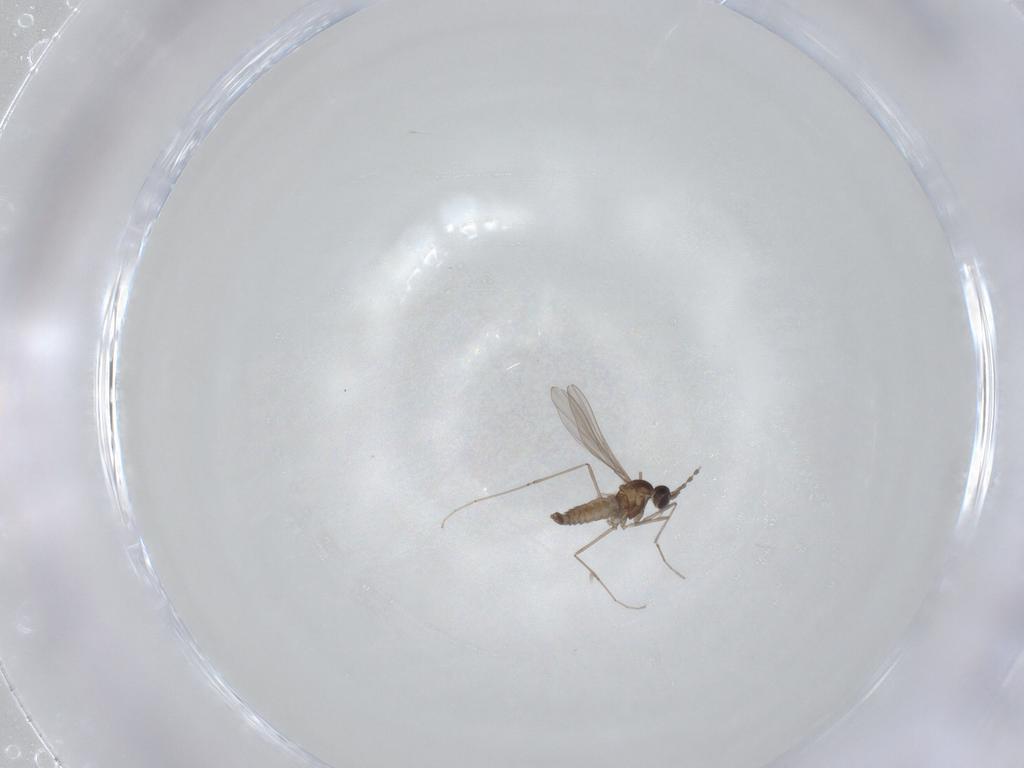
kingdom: Animalia
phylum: Arthropoda
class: Insecta
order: Diptera
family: Cecidomyiidae
